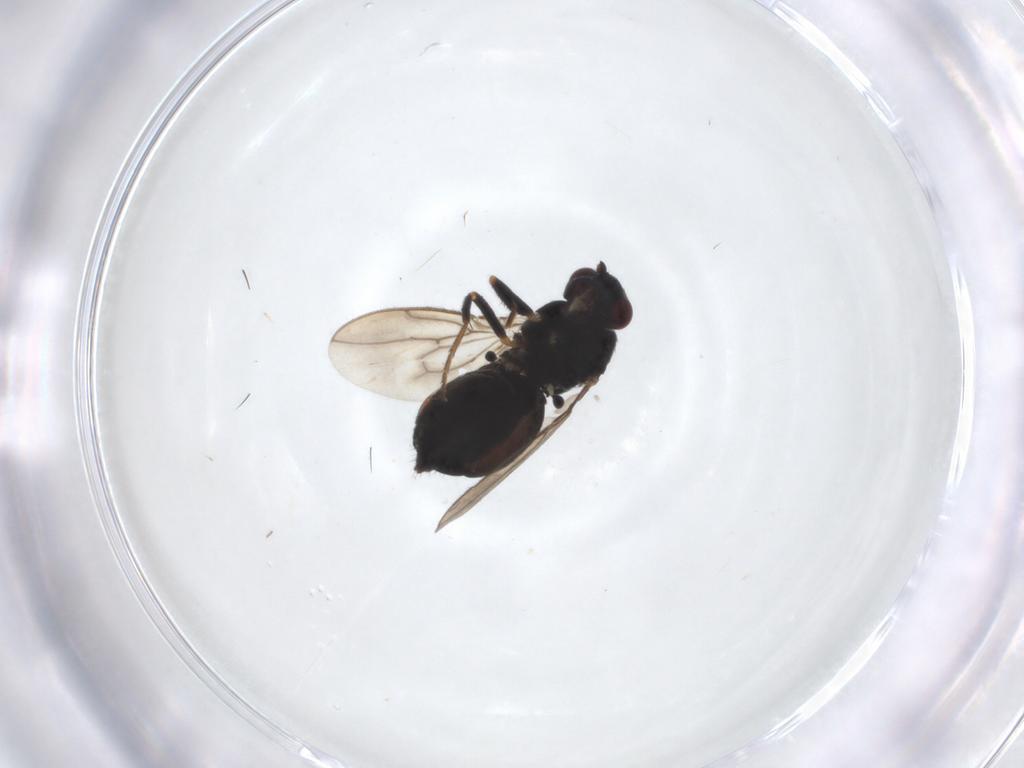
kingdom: Animalia
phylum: Arthropoda
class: Insecta
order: Diptera
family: Sphaeroceridae
